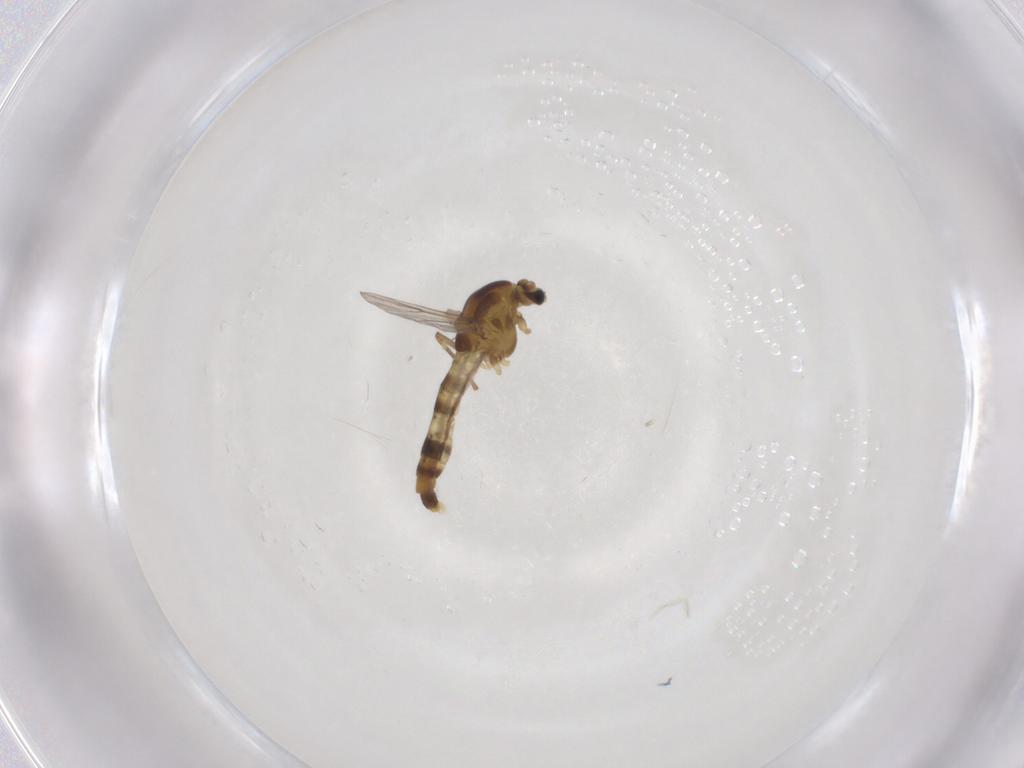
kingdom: Animalia
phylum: Arthropoda
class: Insecta
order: Diptera
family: Chironomidae
